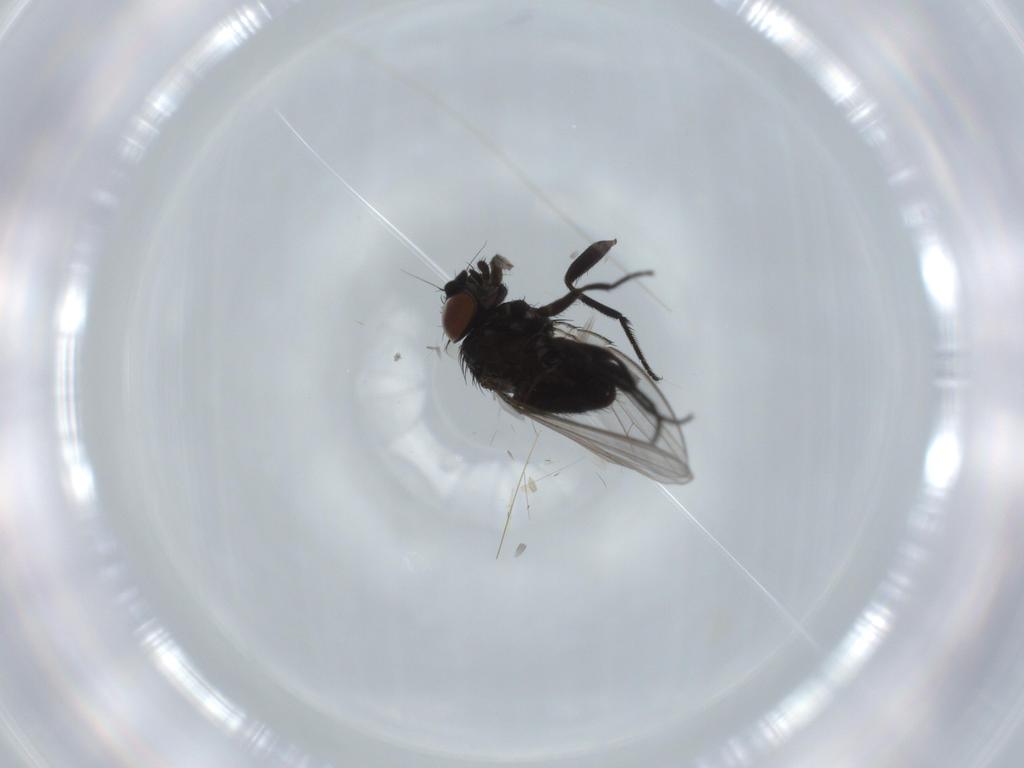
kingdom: Animalia
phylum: Arthropoda
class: Insecta
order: Diptera
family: Milichiidae
